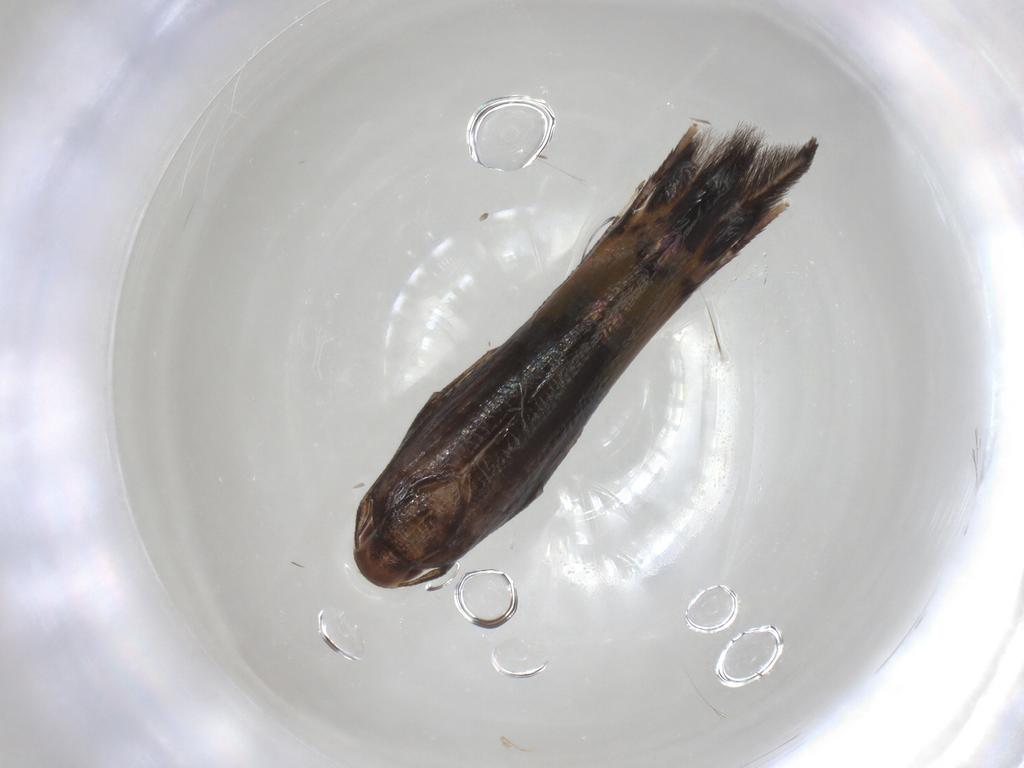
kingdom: Animalia
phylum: Arthropoda
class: Insecta
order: Lepidoptera
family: Cosmopterigidae
